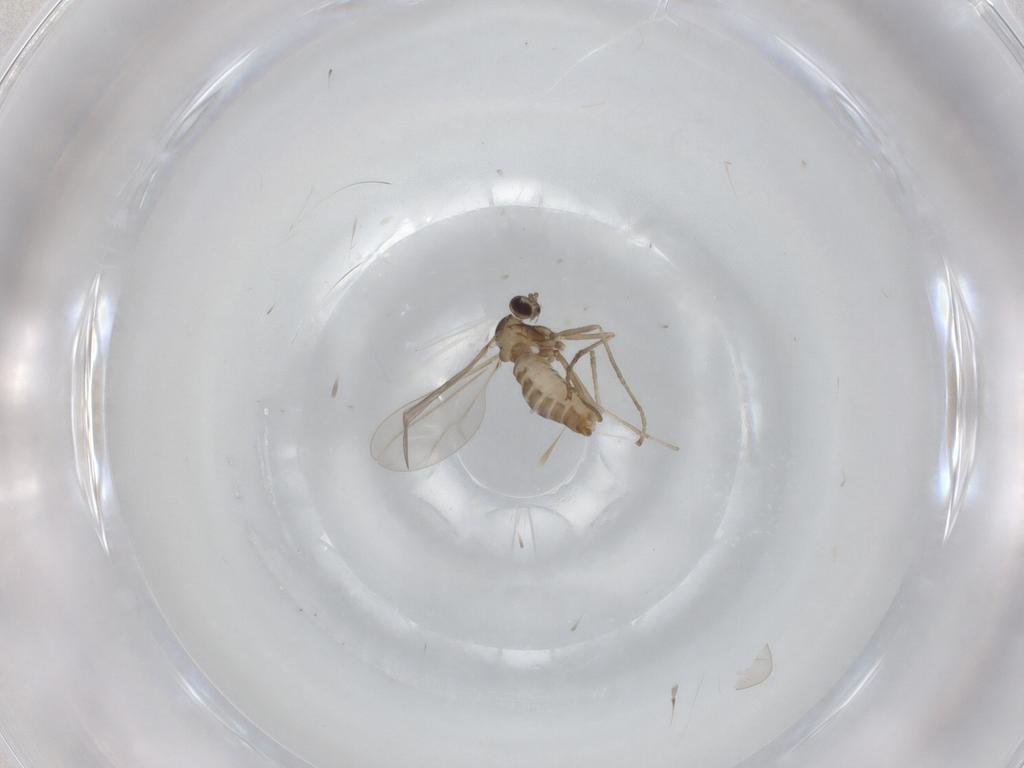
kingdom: Animalia
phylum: Arthropoda
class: Insecta
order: Diptera
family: Cecidomyiidae
